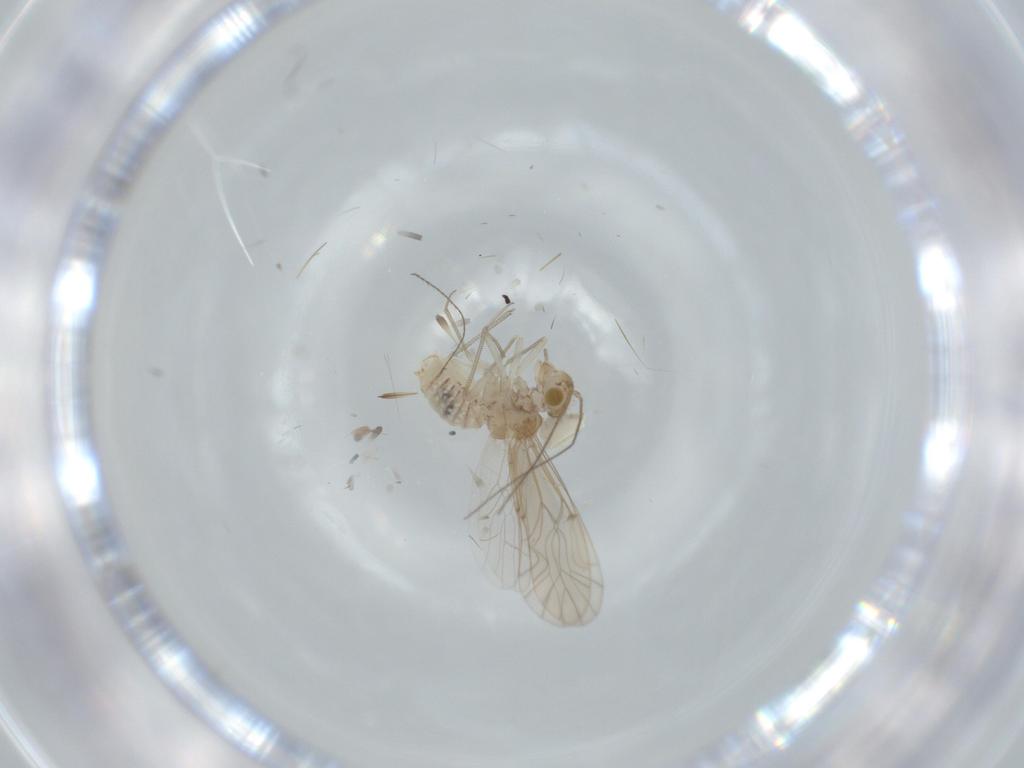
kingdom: Animalia
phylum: Arthropoda
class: Insecta
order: Psocodea
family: Lachesillidae
